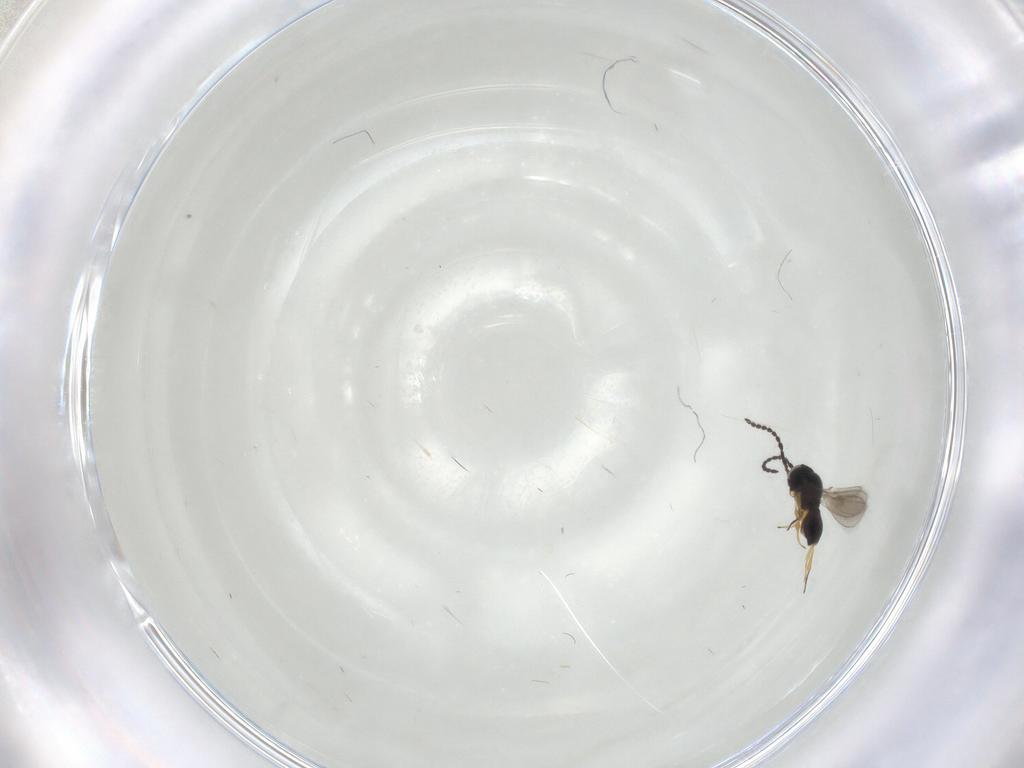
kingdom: Animalia
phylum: Arthropoda
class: Insecta
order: Hymenoptera
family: Scelionidae
